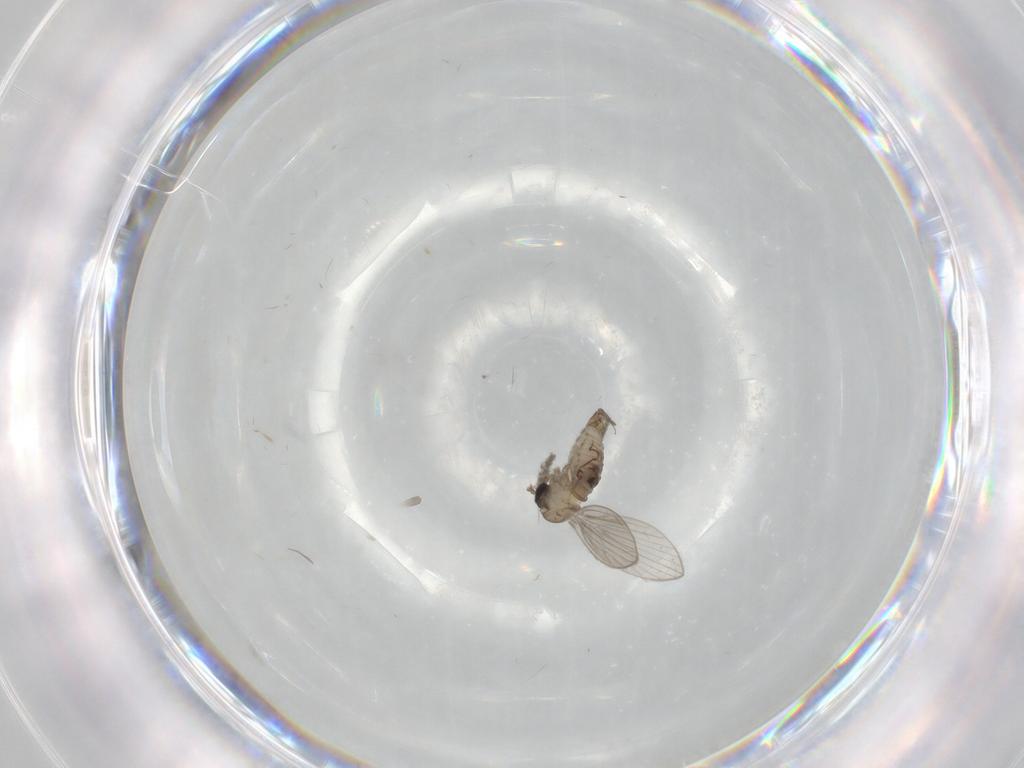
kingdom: Animalia
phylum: Arthropoda
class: Insecta
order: Diptera
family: Psychodidae
